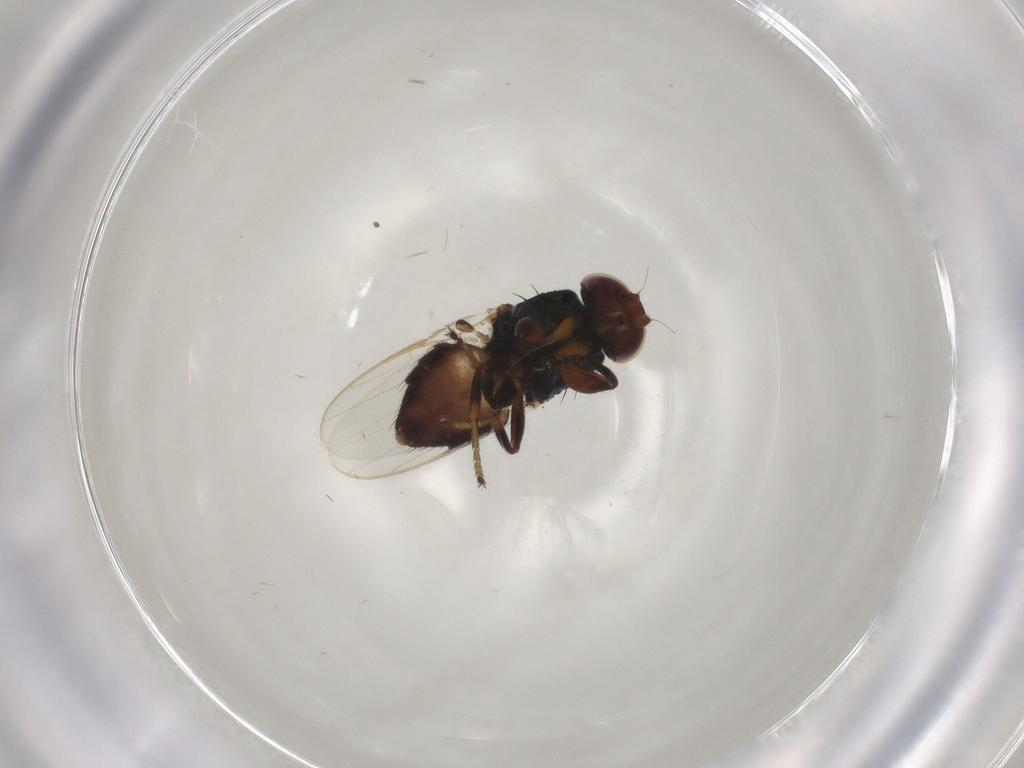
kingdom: Animalia
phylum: Arthropoda
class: Insecta
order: Diptera
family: Chloropidae
